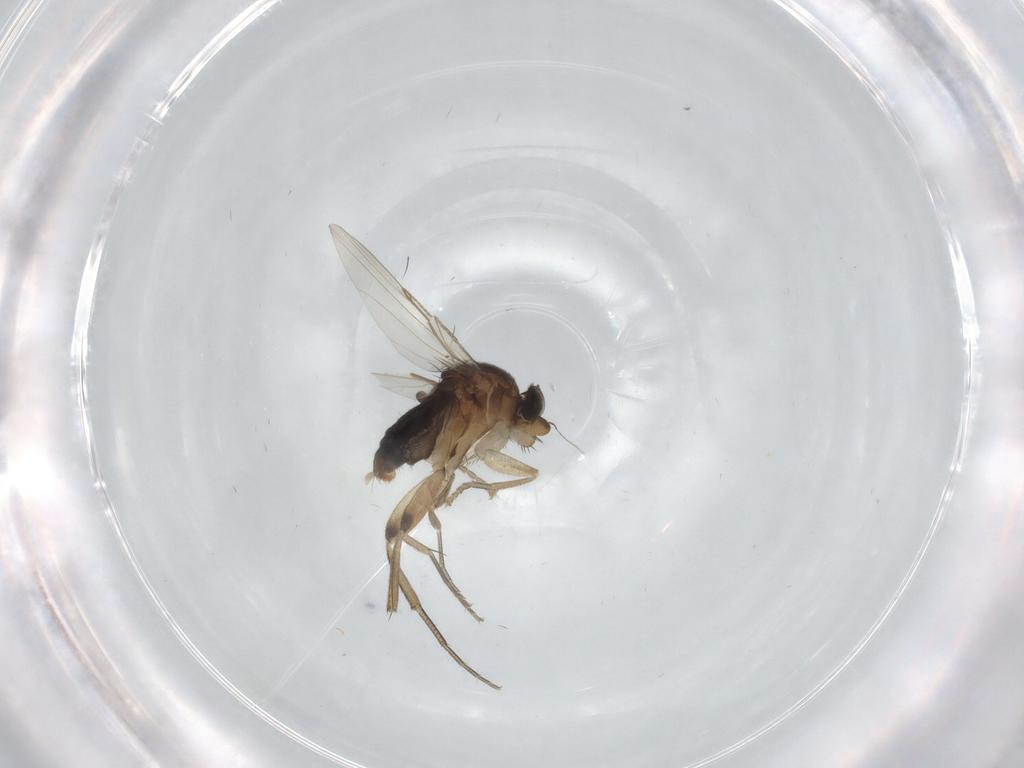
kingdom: Animalia
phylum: Arthropoda
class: Insecta
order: Diptera
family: Phoridae
